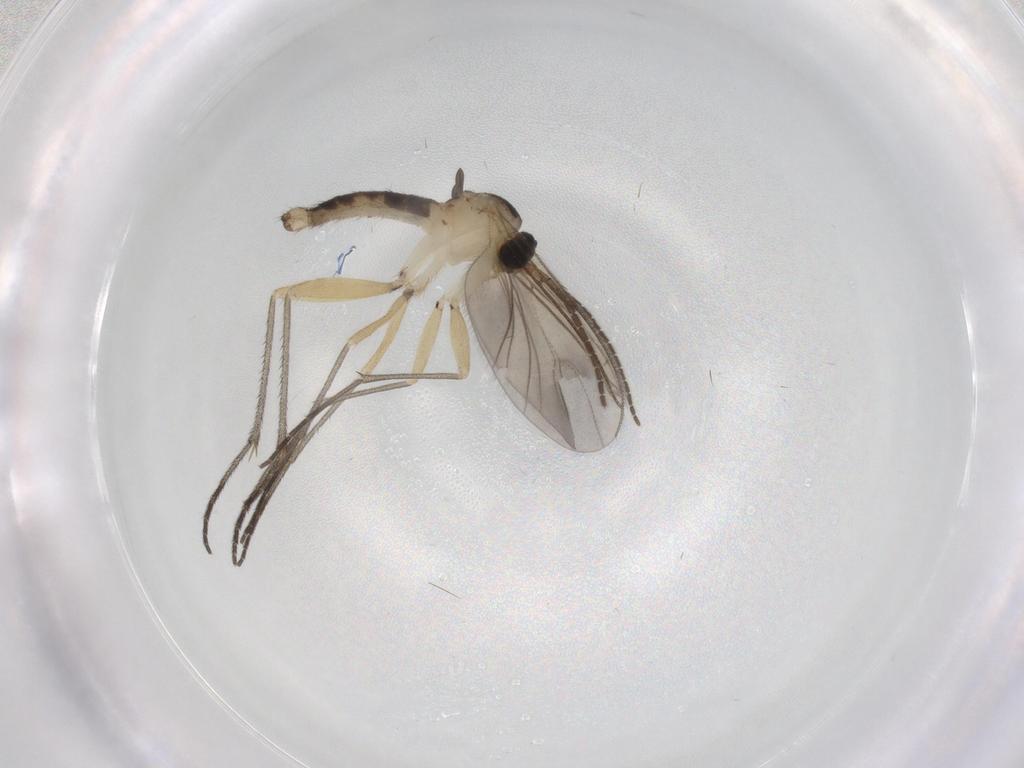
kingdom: Animalia
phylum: Arthropoda
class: Insecta
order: Diptera
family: Sciaridae
